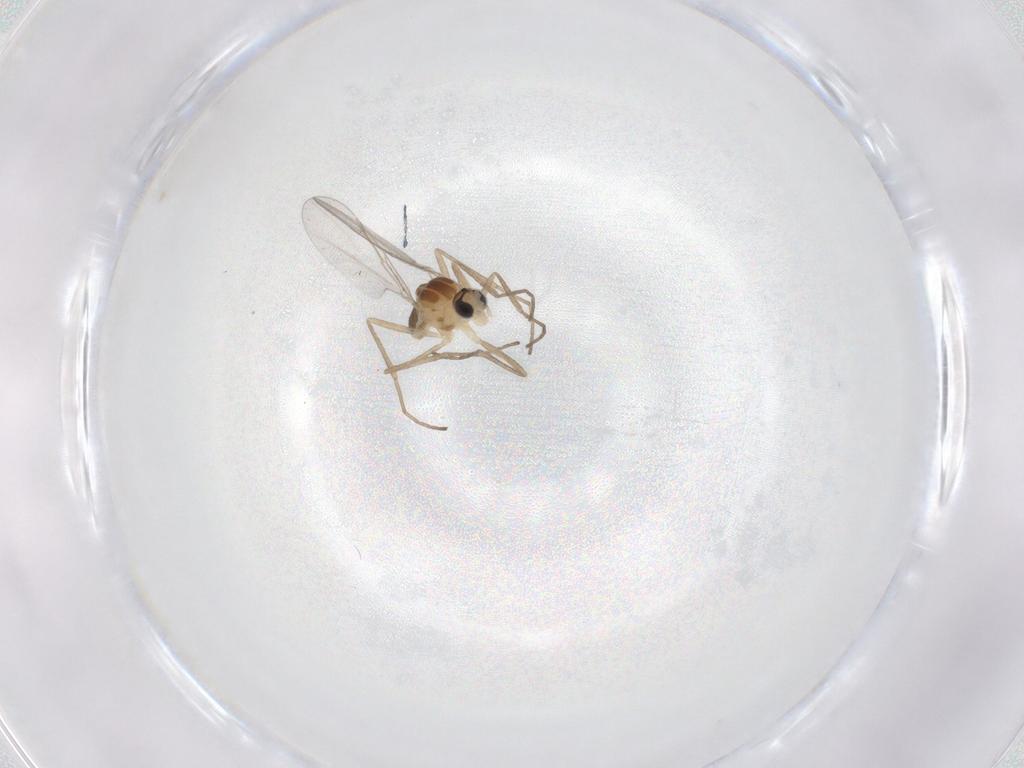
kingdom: Animalia
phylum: Arthropoda
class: Insecta
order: Diptera
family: Cecidomyiidae
